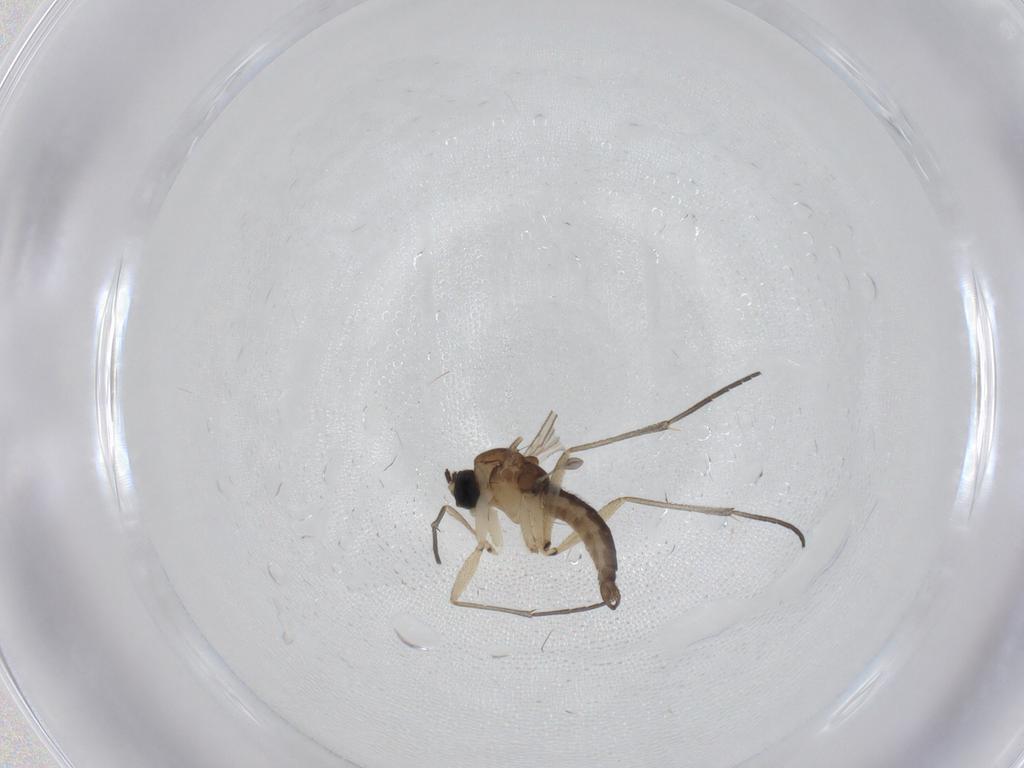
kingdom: Animalia
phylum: Arthropoda
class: Insecta
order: Diptera
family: Sciaridae
